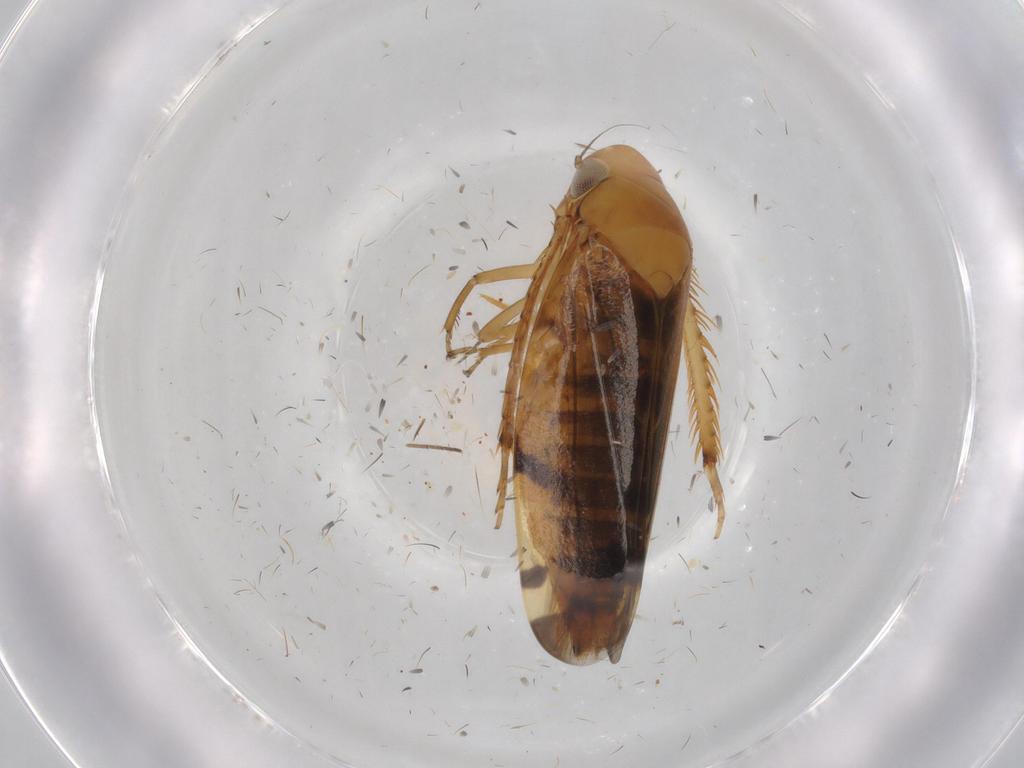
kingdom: Animalia
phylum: Arthropoda
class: Insecta
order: Hemiptera
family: Cicadellidae
